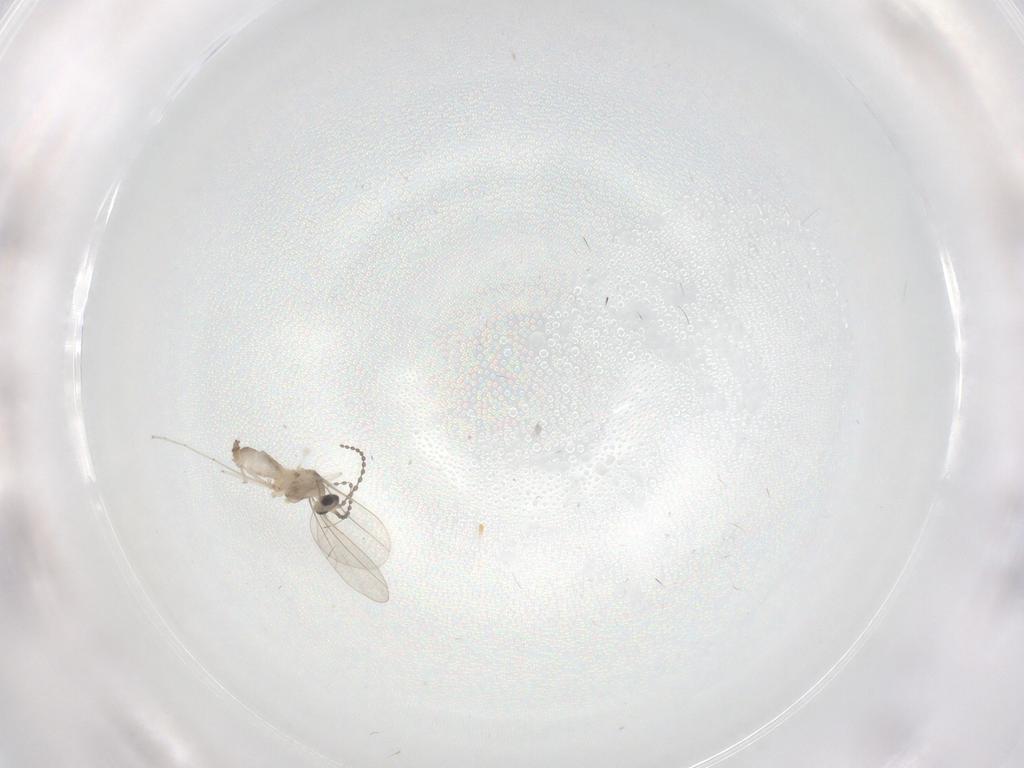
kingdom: Animalia
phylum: Arthropoda
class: Insecta
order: Diptera
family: Cecidomyiidae
